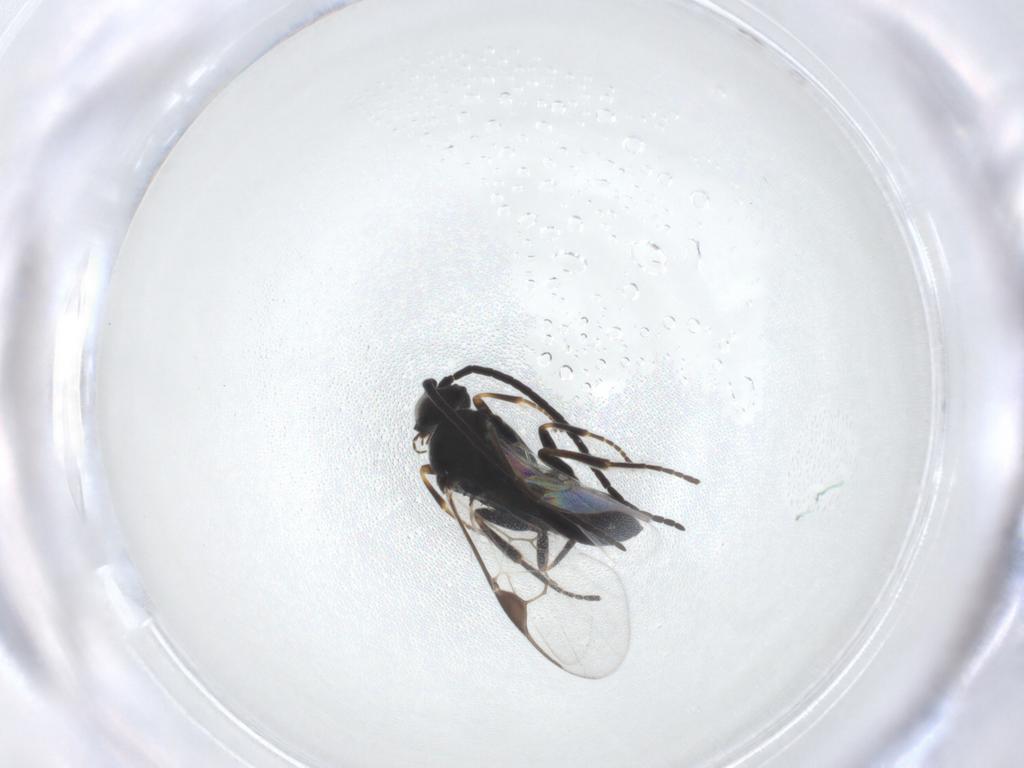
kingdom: Animalia
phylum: Arthropoda
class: Insecta
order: Hymenoptera
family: Braconidae
